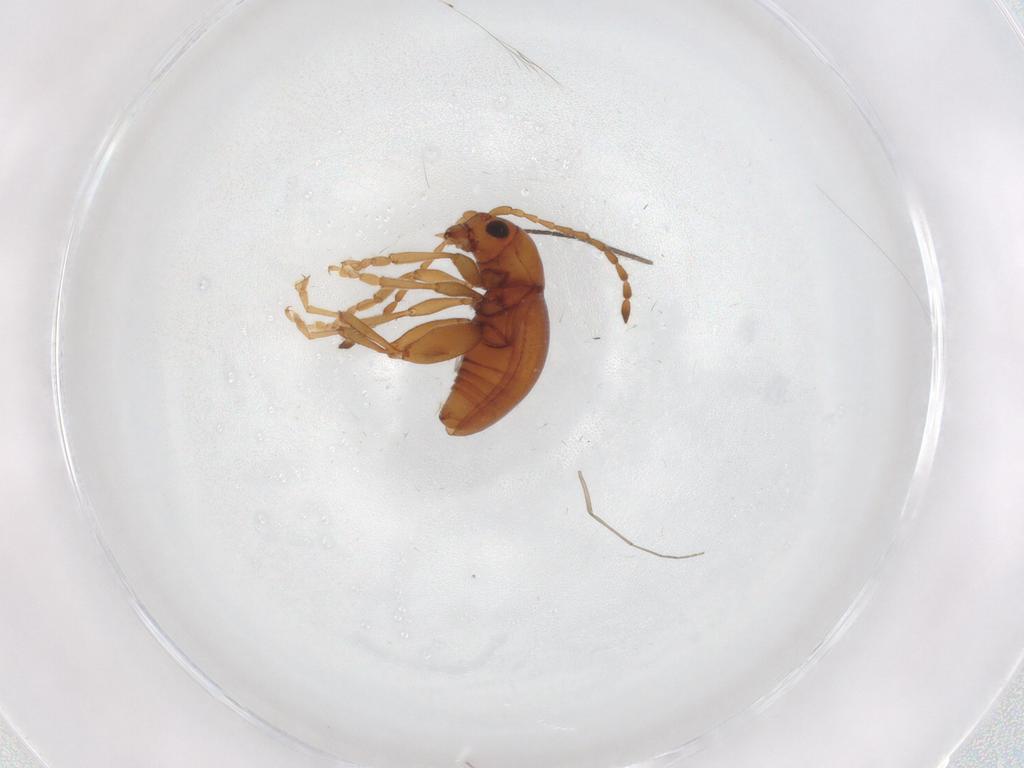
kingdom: Animalia
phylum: Arthropoda
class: Insecta
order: Coleoptera
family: Chrysomelidae
